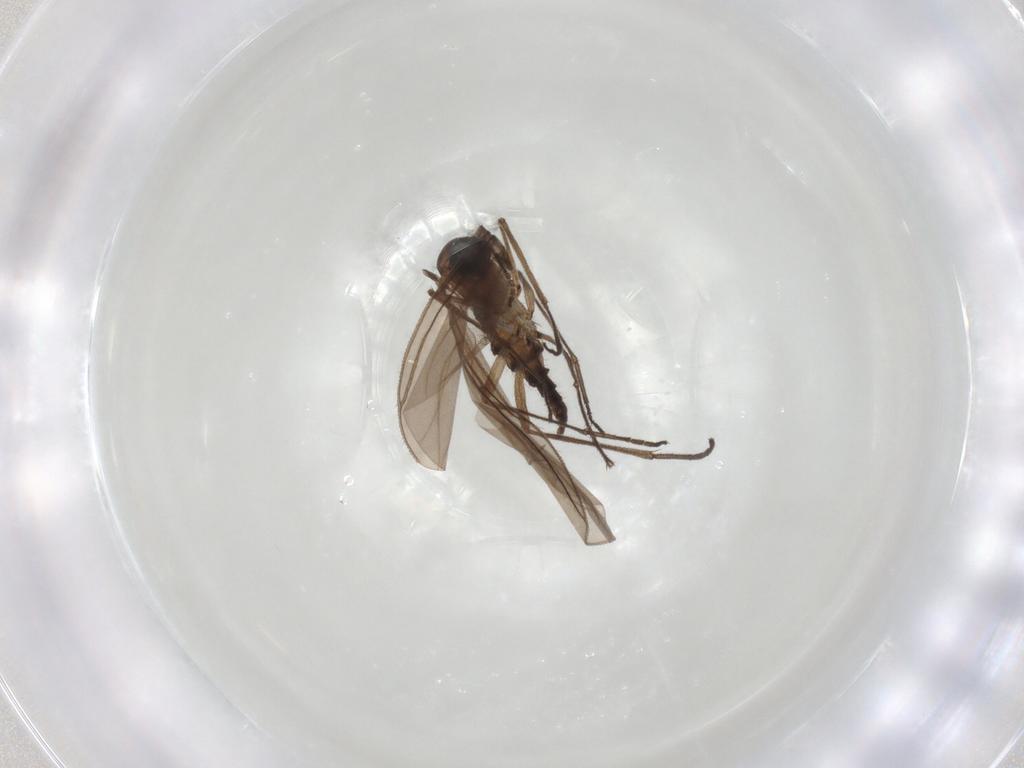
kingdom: Animalia
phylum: Arthropoda
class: Insecta
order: Diptera
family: Sciaridae
